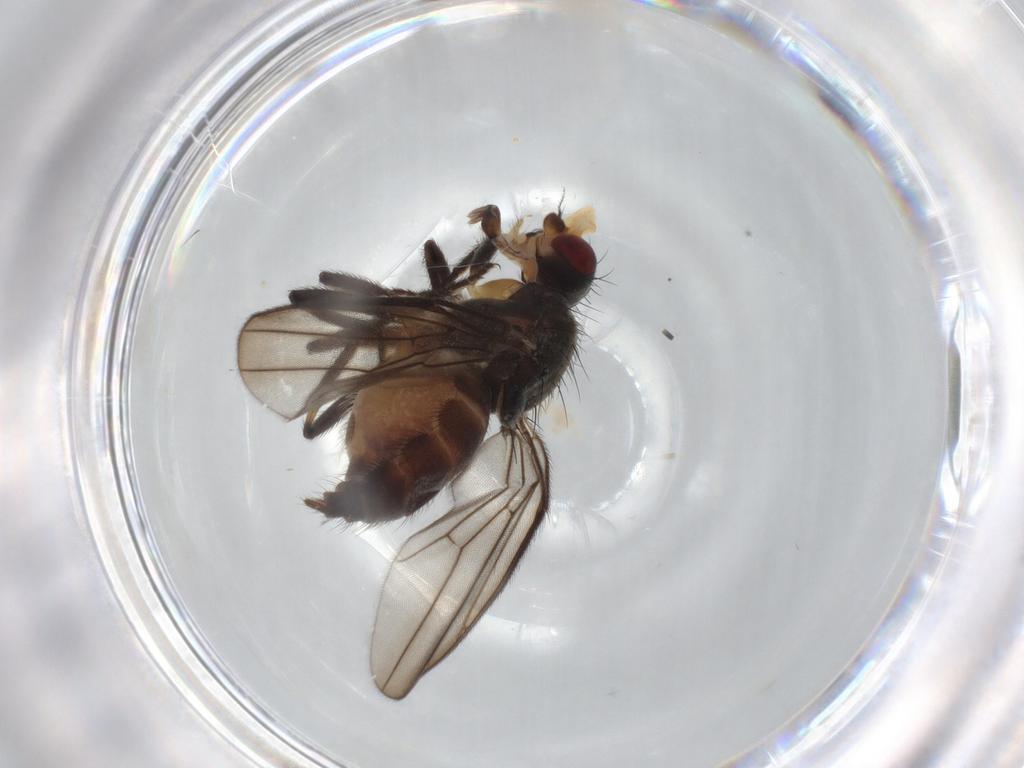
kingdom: Animalia
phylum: Arthropoda
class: Insecta
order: Diptera
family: Chloropidae
